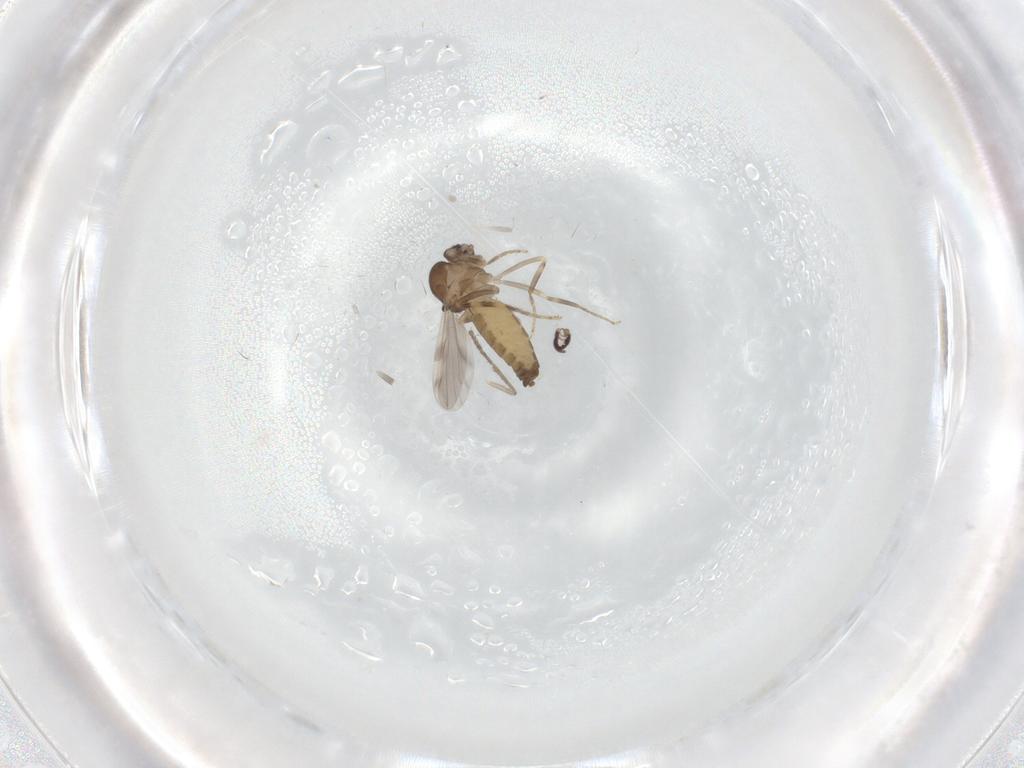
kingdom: Animalia
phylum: Arthropoda
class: Insecta
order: Diptera
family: Ceratopogonidae
